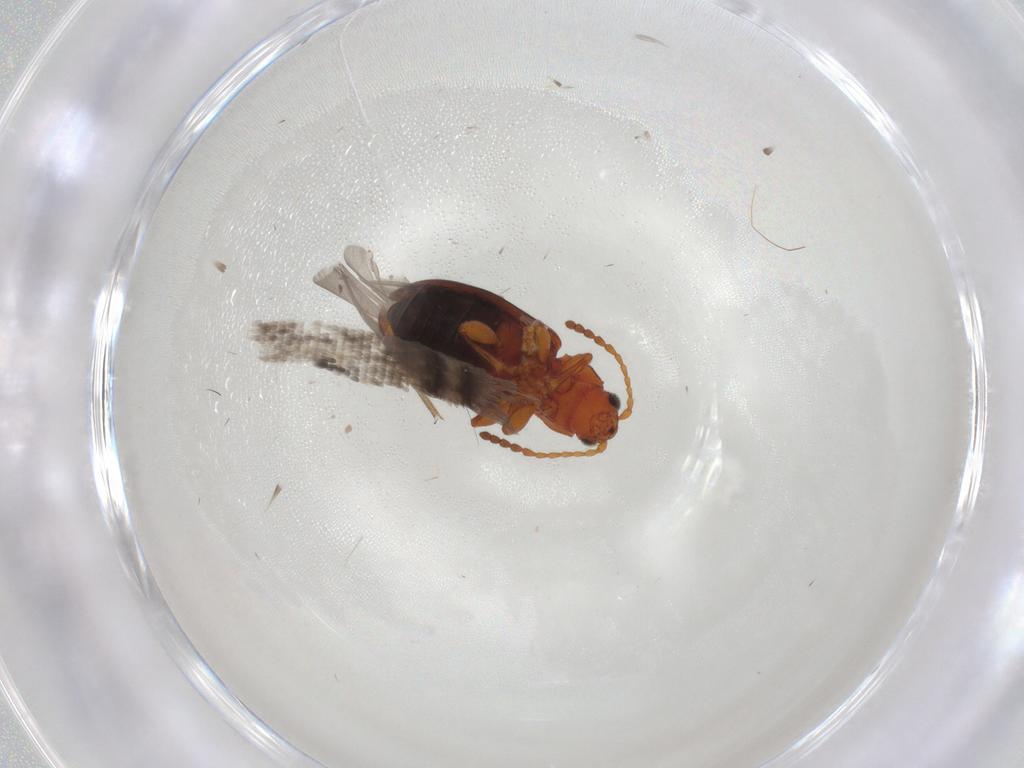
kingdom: Animalia
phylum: Arthropoda
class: Insecta
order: Coleoptera
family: Chrysomelidae
